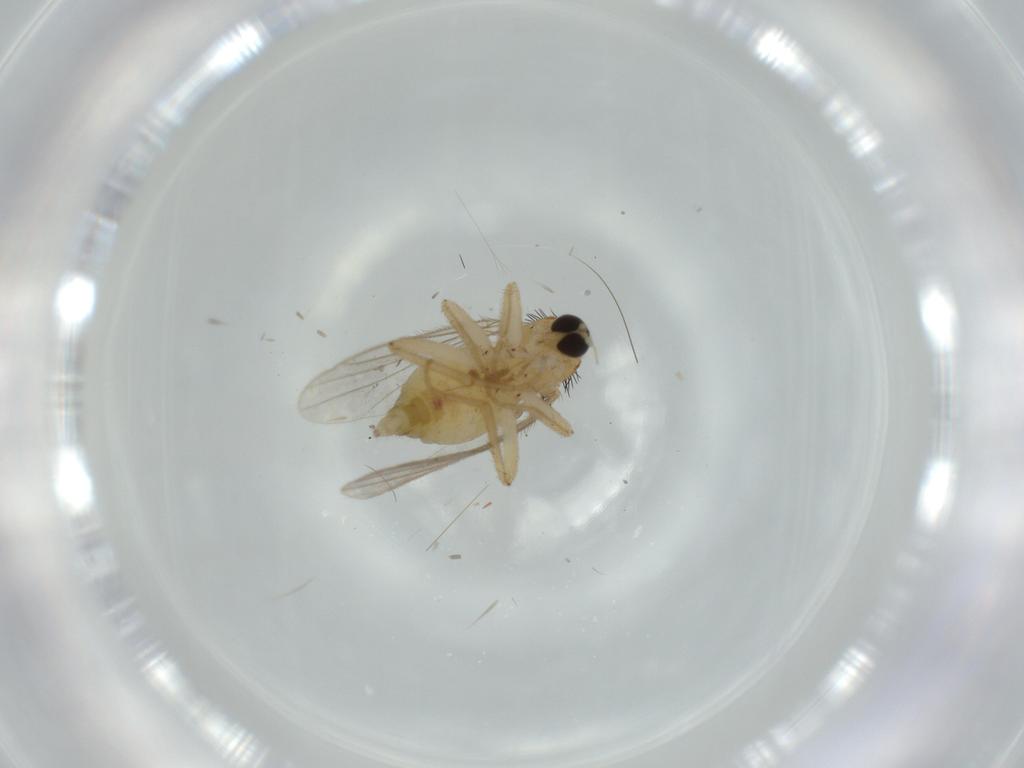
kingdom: Animalia
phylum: Arthropoda
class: Insecta
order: Diptera
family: Hybotidae
